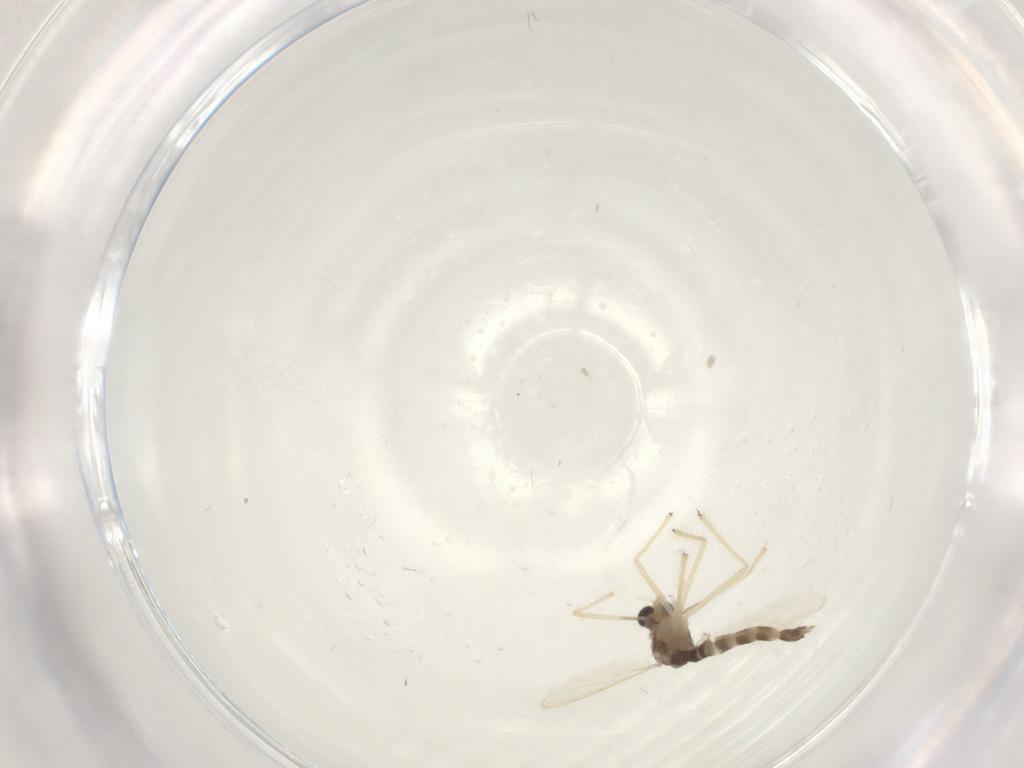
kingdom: Animalia
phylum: Arthropoda
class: Insecta
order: Diptera
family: Chironomidae
